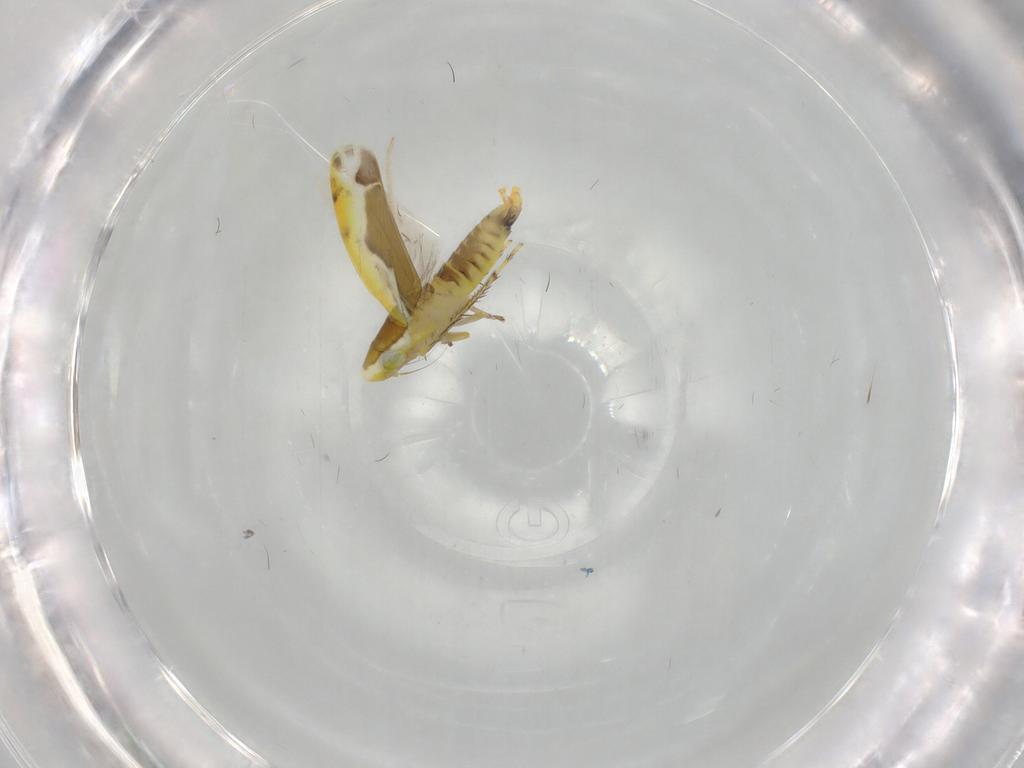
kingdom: Animalia
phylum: Arthropoda
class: Insecta
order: Hemiptera
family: Cicadellidae
